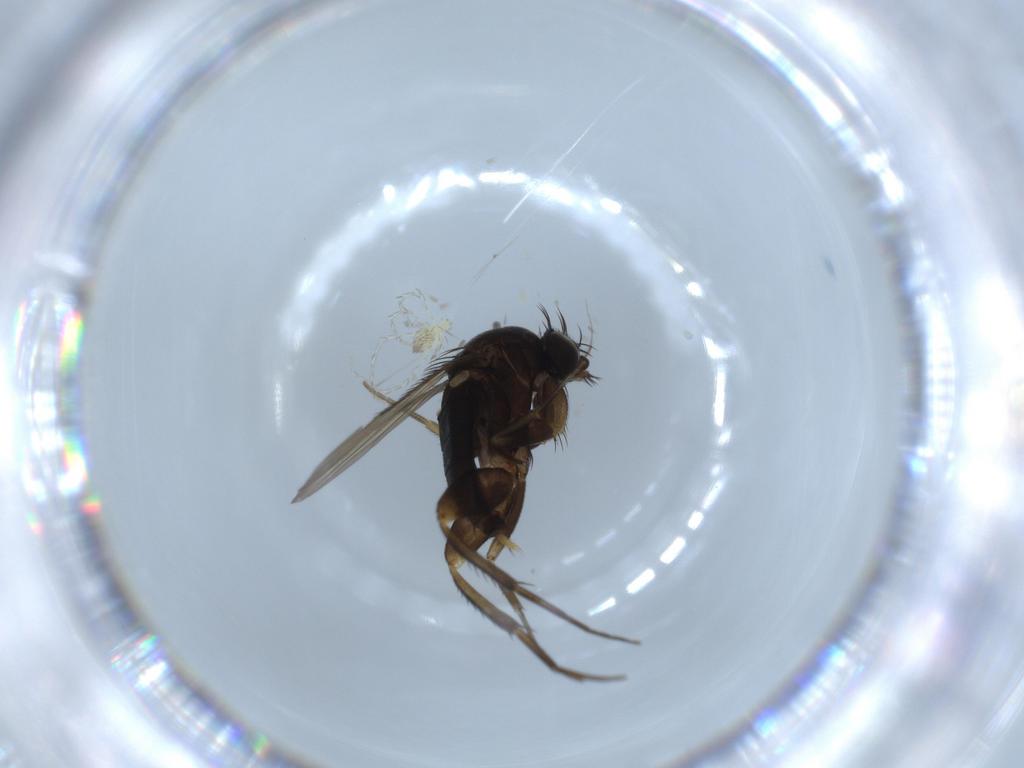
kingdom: Animalia
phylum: Arthropoda
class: Insecta
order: Diptera
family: Phoridae
